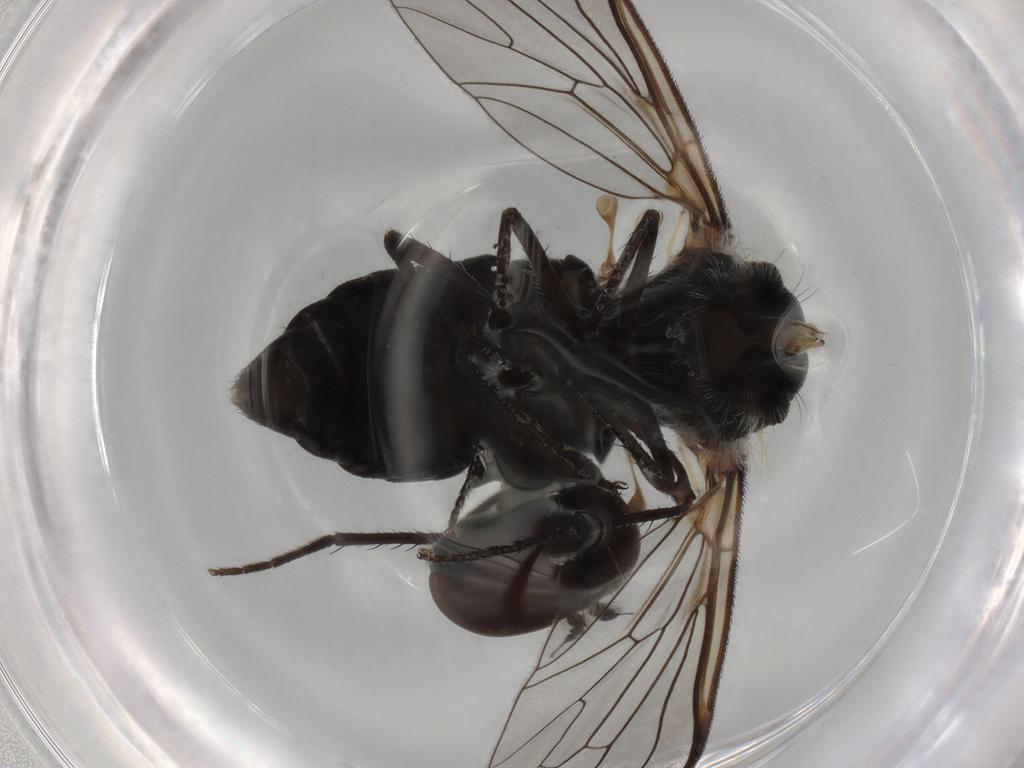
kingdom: Animalia
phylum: Arthropoda
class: Insecta
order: Diptera
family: Bombyliidae
